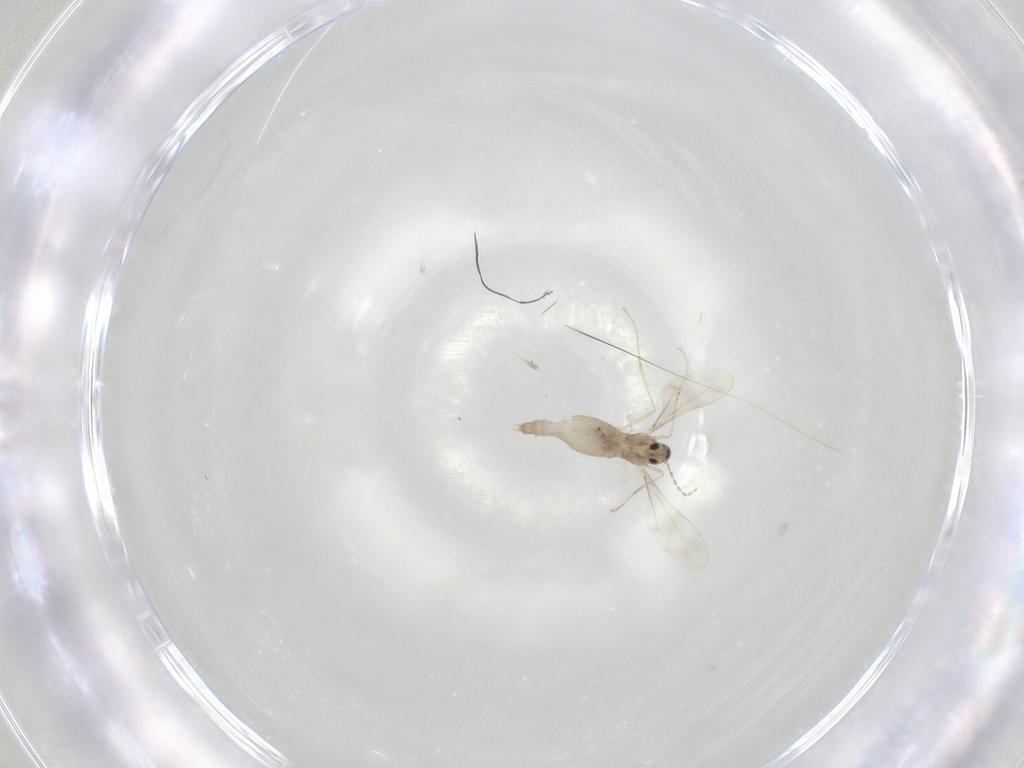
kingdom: Animalia
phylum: Arthropoda
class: Insecta
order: Diptera
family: Cecidomyiidae
